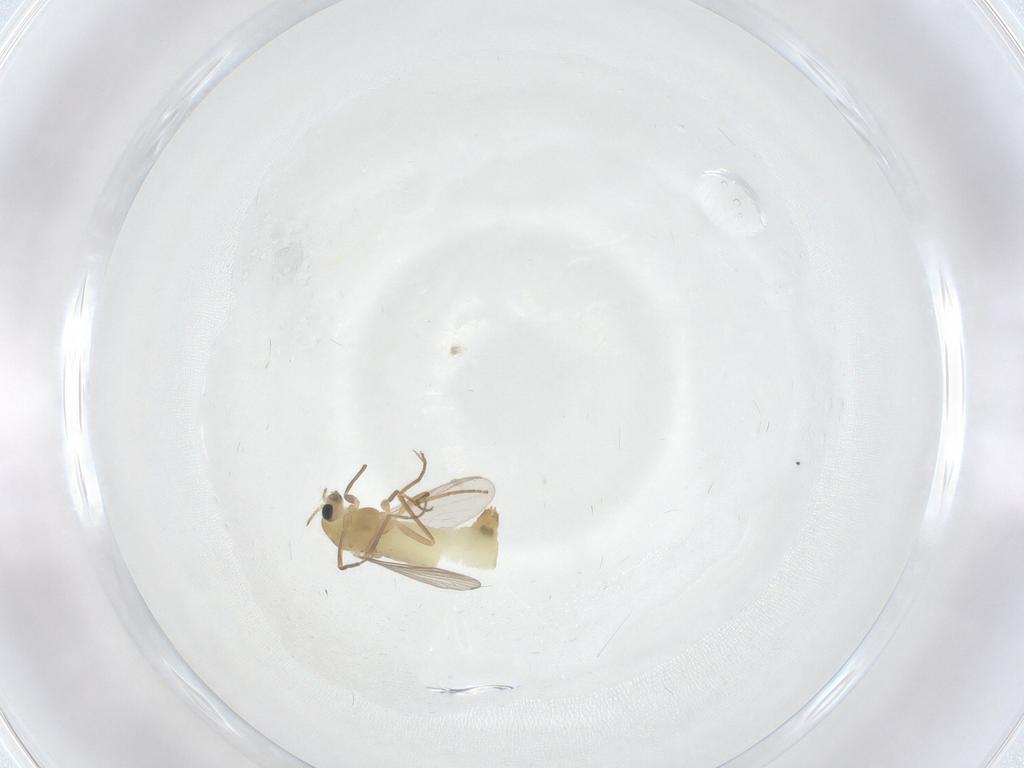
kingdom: Animalia
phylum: Arthropoda
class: Insecta
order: Diptera
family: Chironomidae
